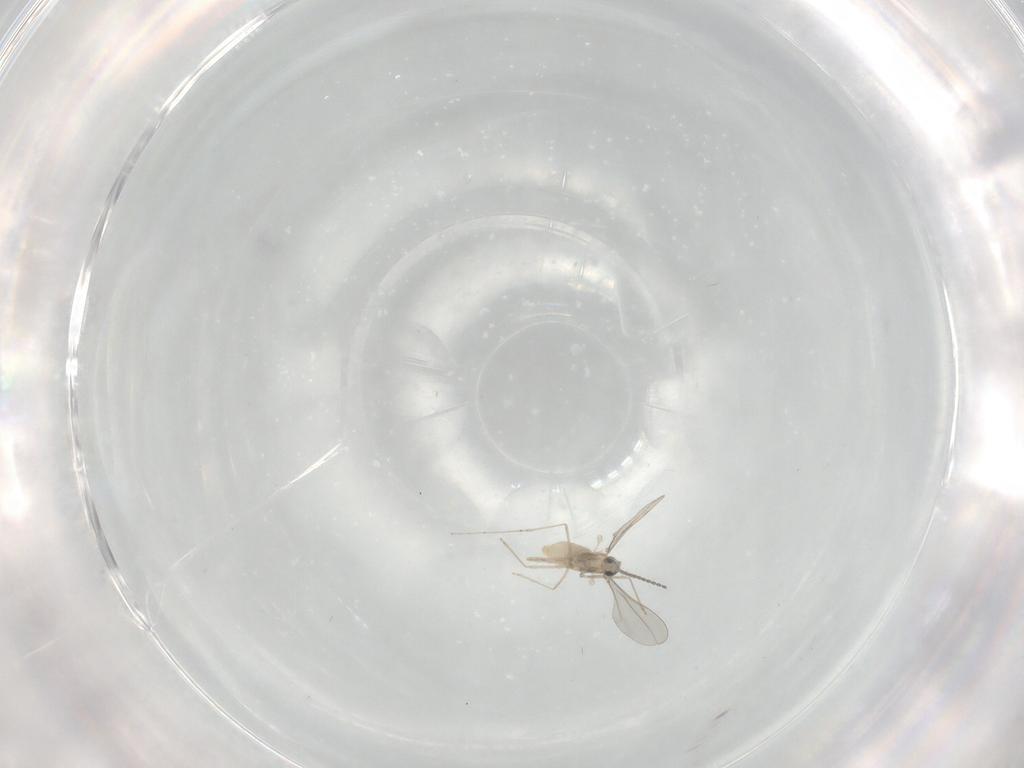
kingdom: Animalia
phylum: Arthropoda
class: Insecta
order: Diptera
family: Cecidomyiidae
